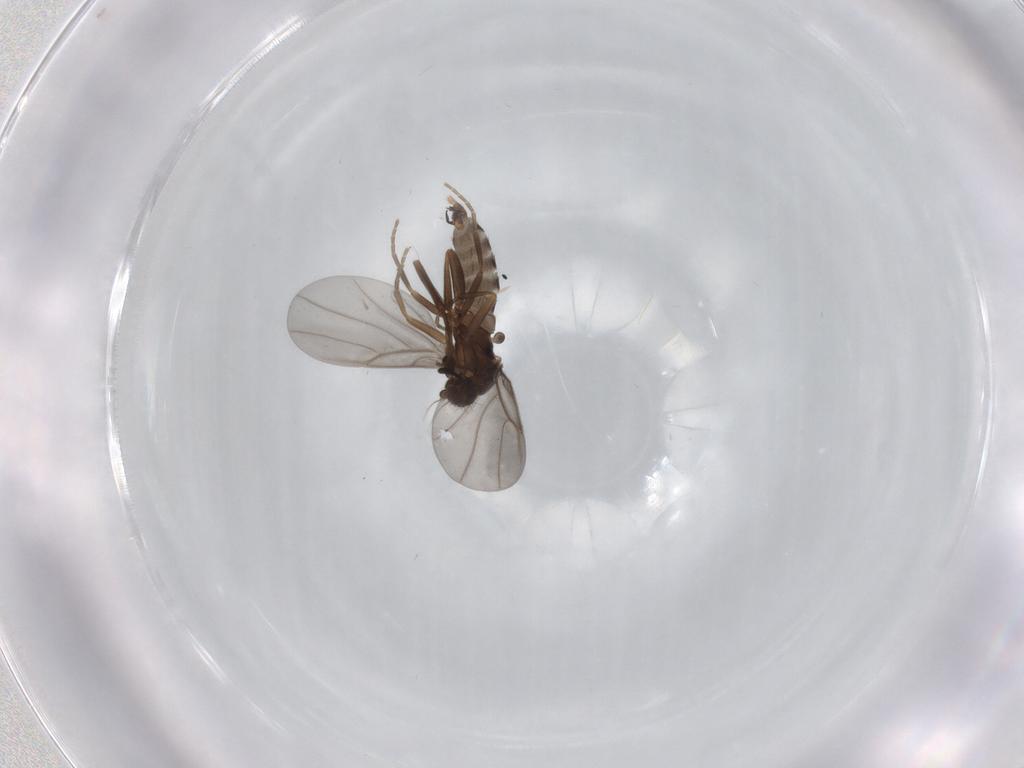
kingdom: Animalia
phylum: Arthropoda
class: Insecta
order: Diptera
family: Phoridae
